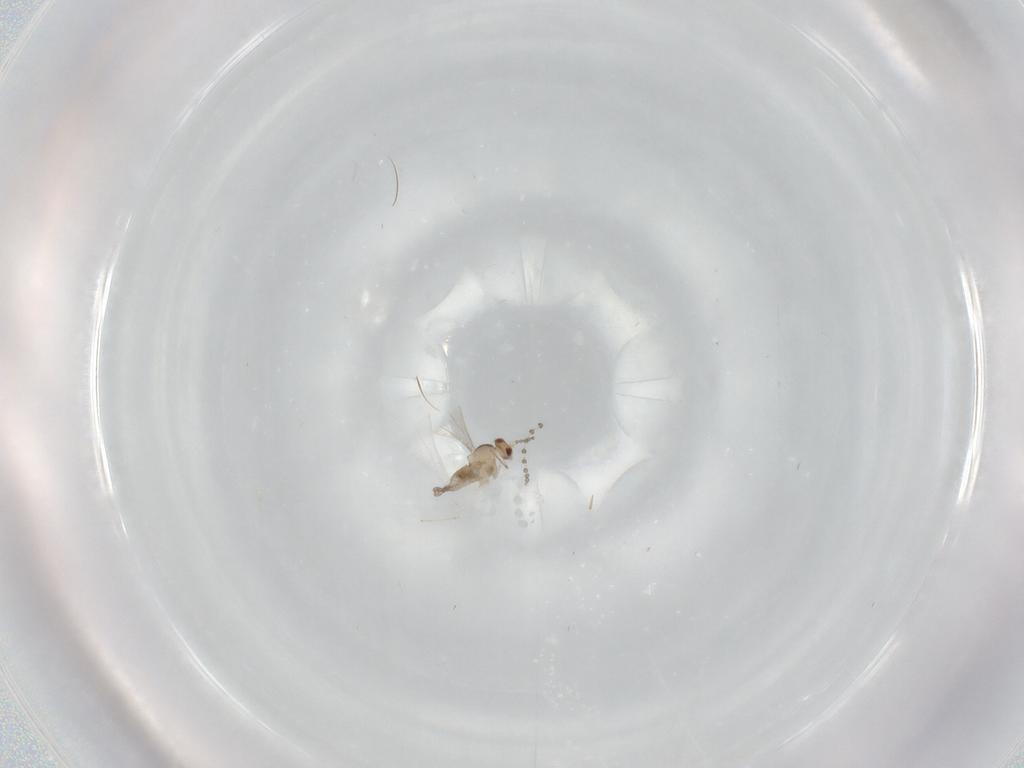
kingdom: Animalia
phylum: Arthropoda
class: Insecta
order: Diptera
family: Cecidomyiidae
